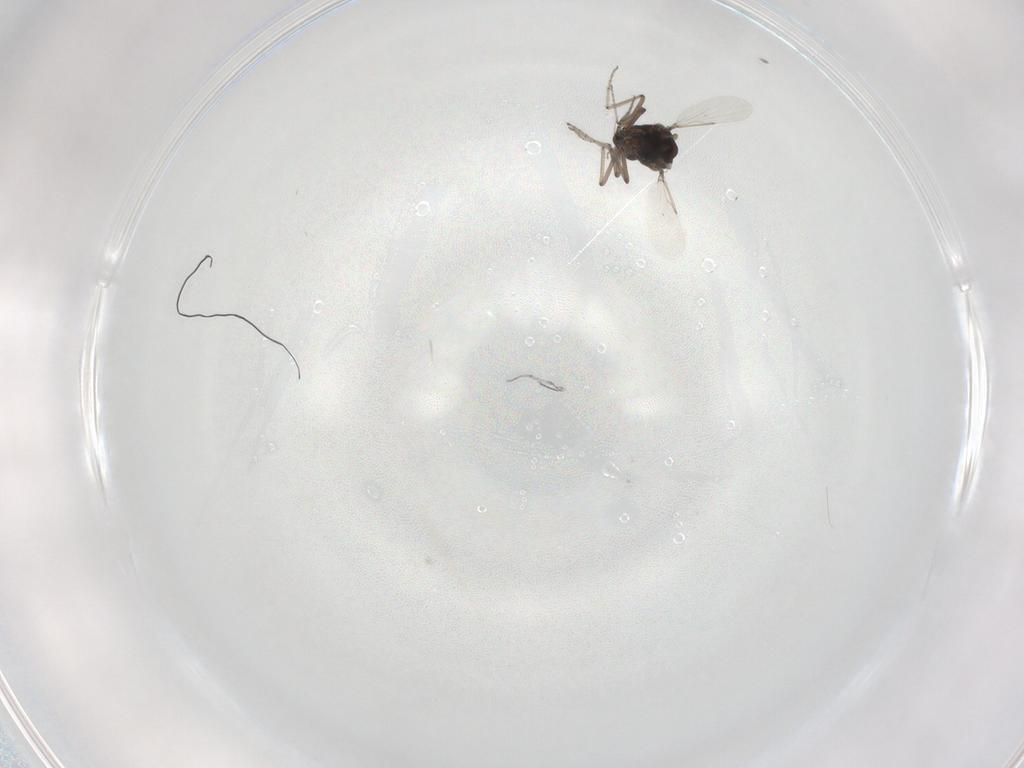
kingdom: Animalia
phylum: Arthropoda
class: Insecta
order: Diptera
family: Ceratopogonidae
